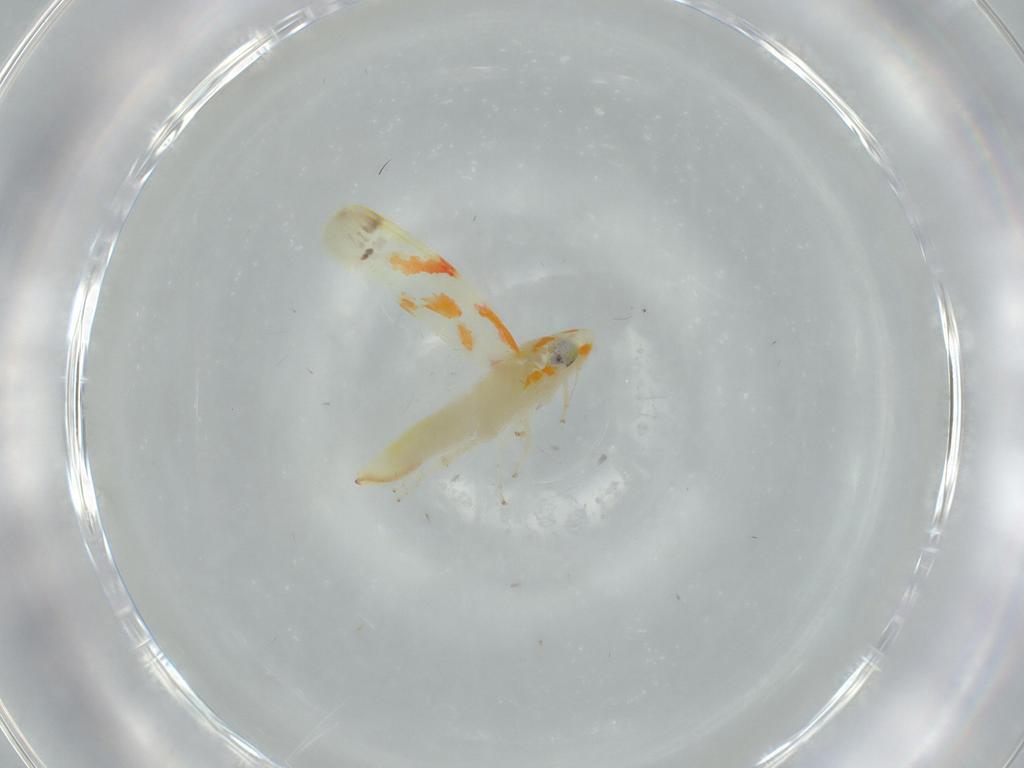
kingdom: Animalia
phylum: Arthropoda
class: Insecta
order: Hemiptera
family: Cicadellidae
